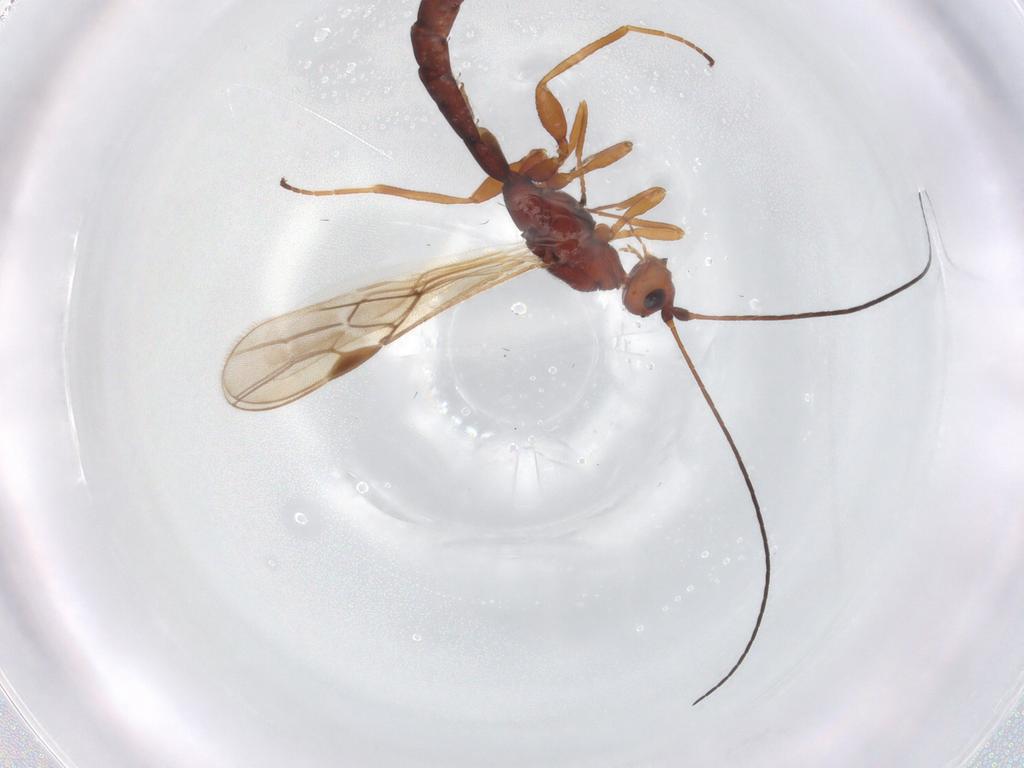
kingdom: Animalia
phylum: Arthropoda
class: Insecta
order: Hymenoptera
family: Braconidae
